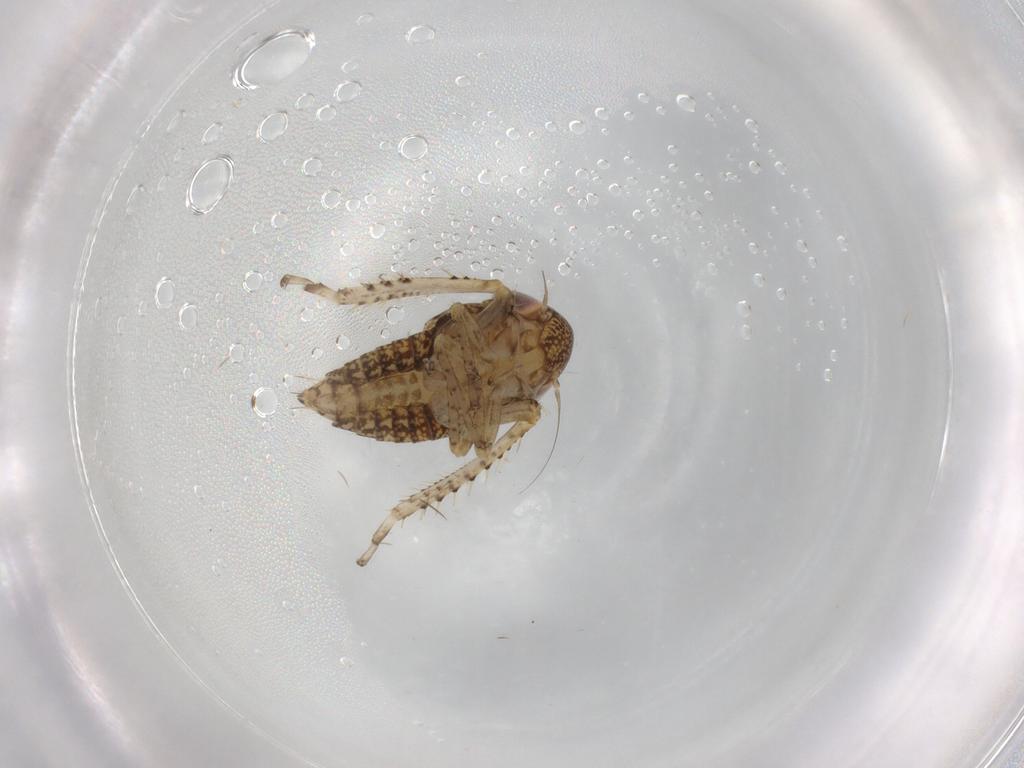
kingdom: Animalia
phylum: Arthropoda
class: Insecta
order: Hemiptera
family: Cicadellidae
